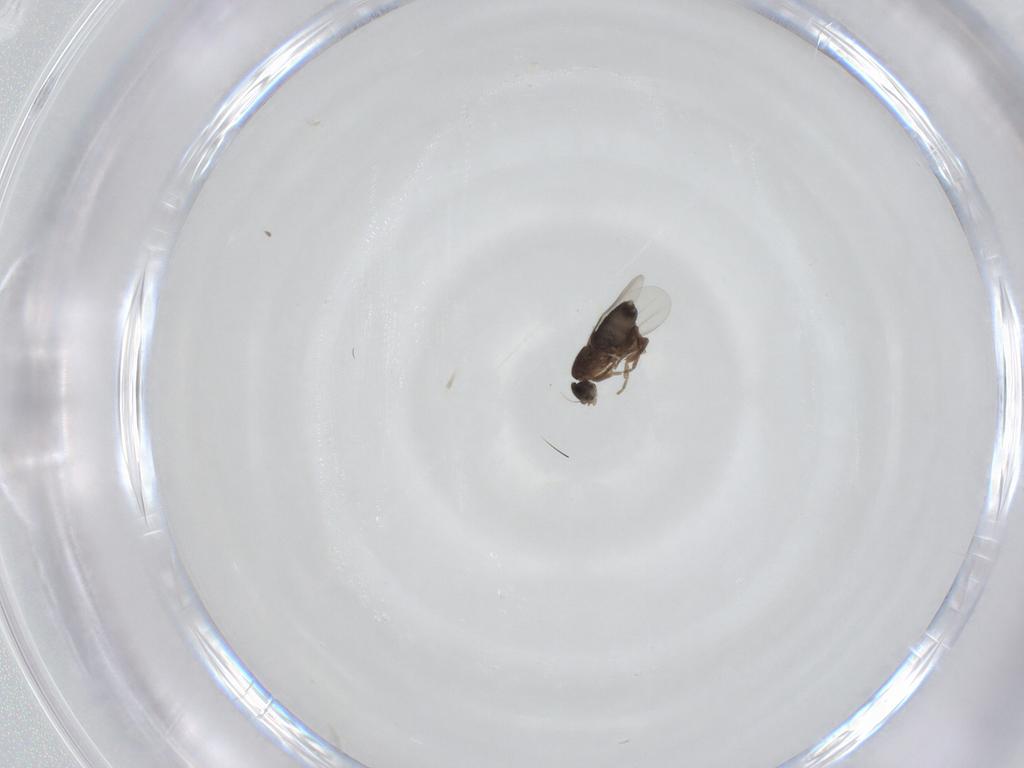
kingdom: Animalia
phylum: Arthropoda
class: Insecta
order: Diptera
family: Phoridae
